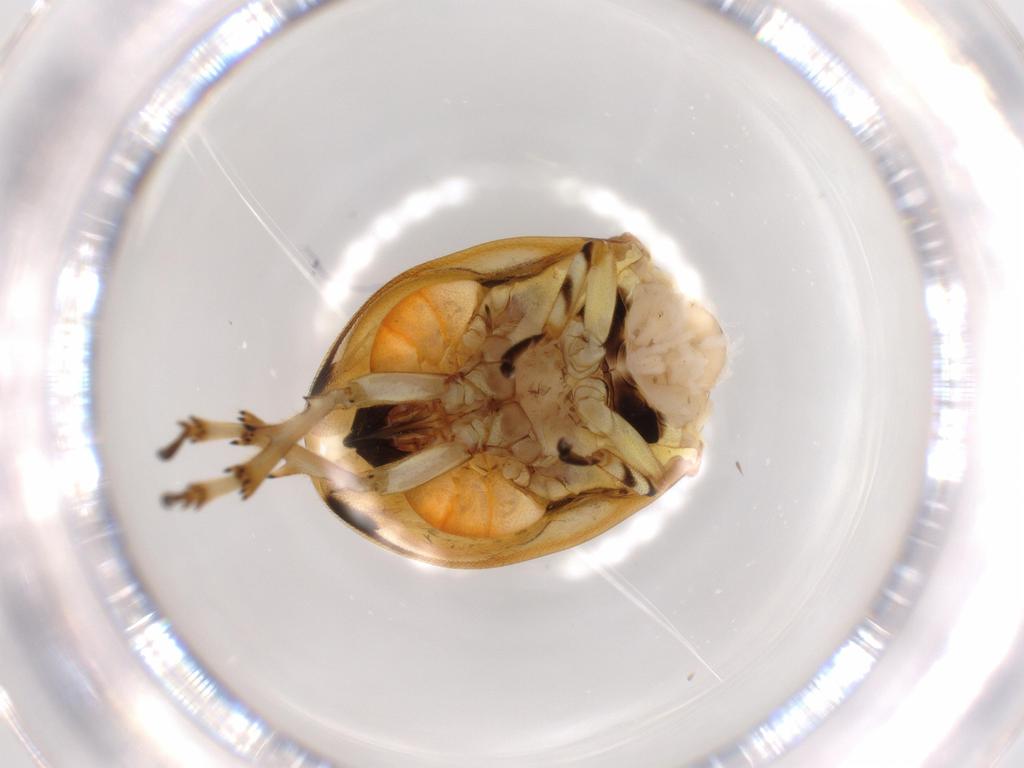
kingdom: Animalia
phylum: Arthropoda
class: Insecta
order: Hemiptera
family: Clastopteridae
